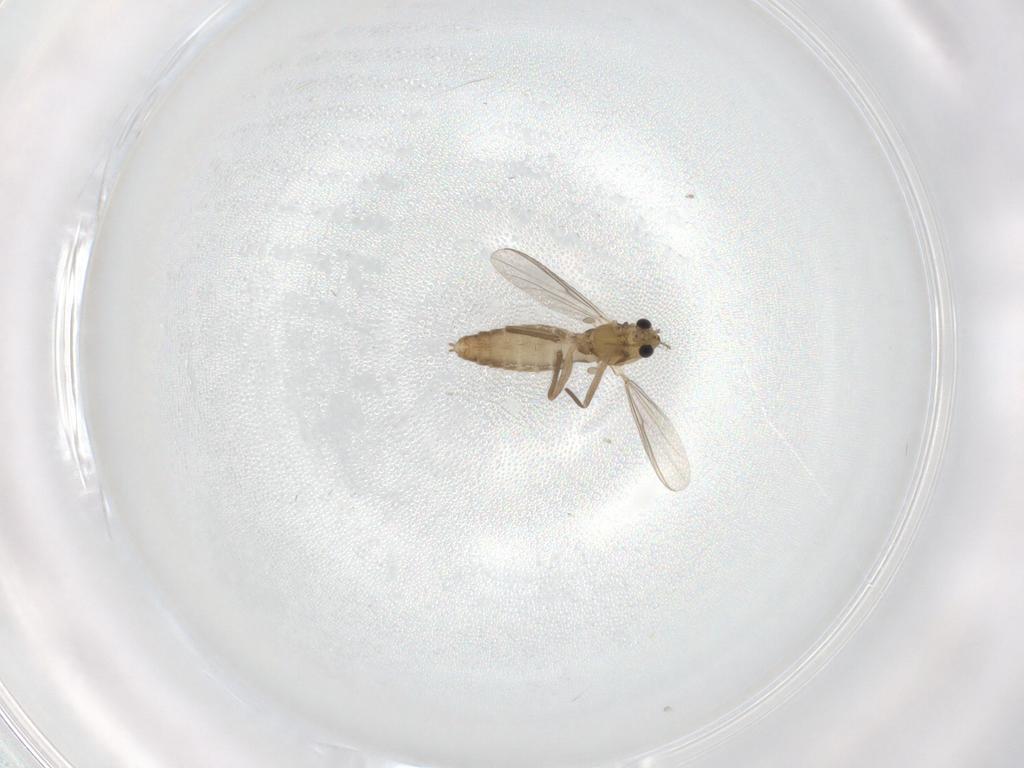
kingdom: Animalia
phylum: Arthropoda
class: Insecta
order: Diptera
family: Chironomidae
